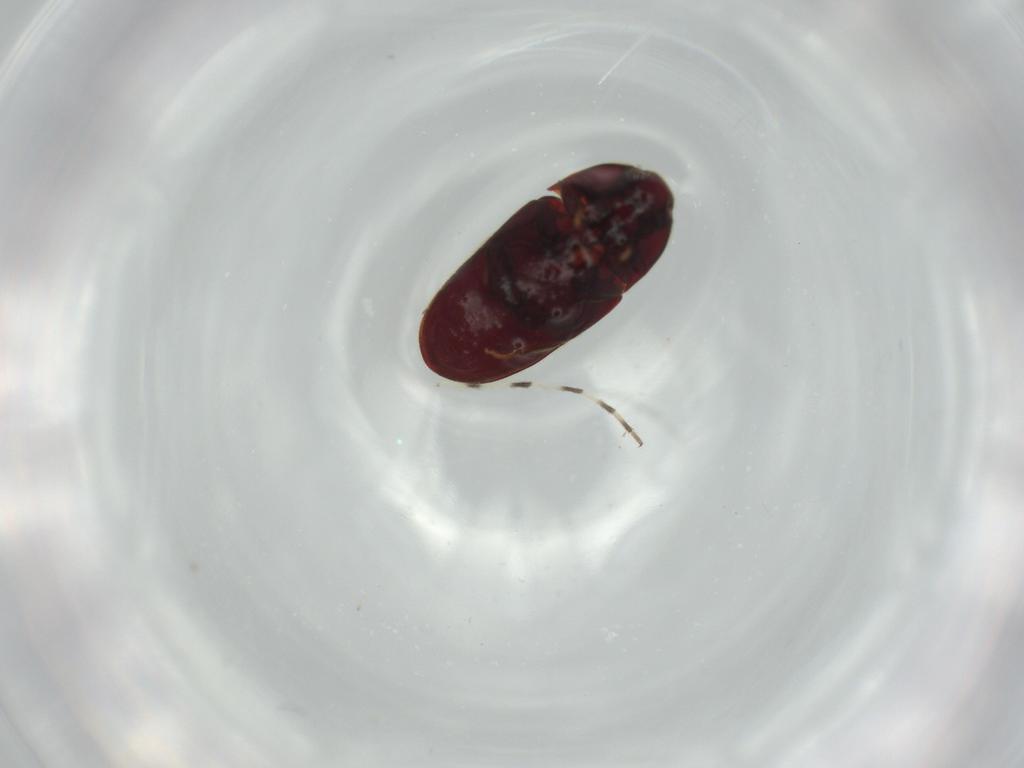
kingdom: Animalia
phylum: Arthropoda
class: Insecta
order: Coleoptera
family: Throscidae
